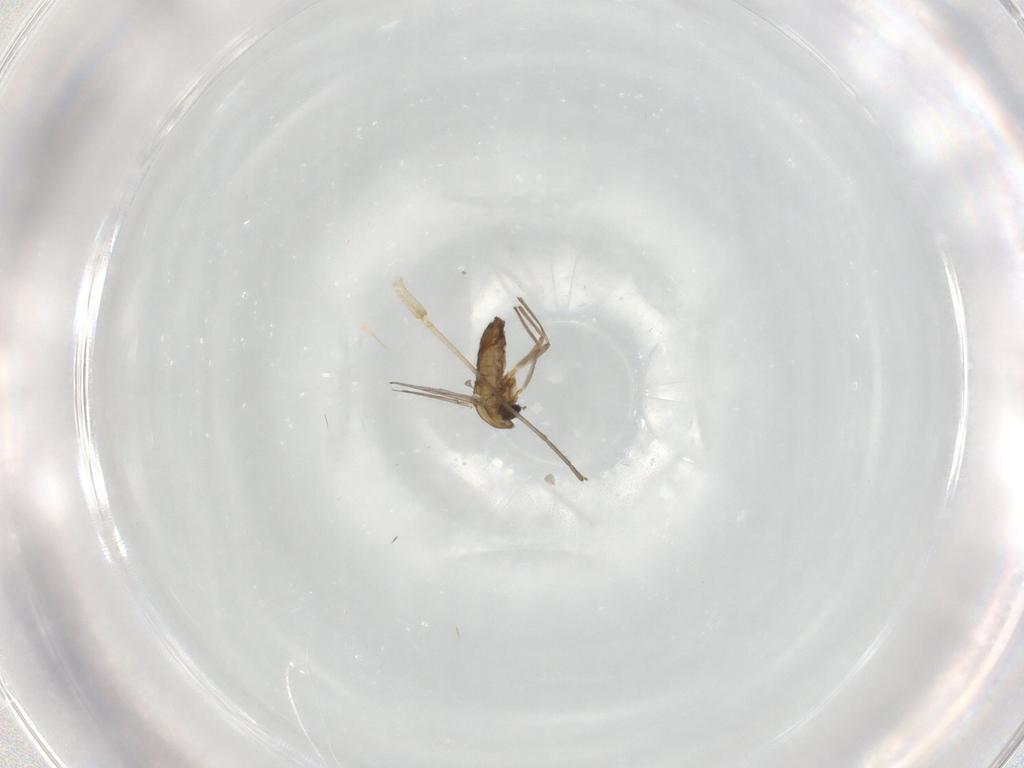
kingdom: Animalia
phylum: Arthropoda
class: Insecta
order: Diptera
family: Chironomidae
